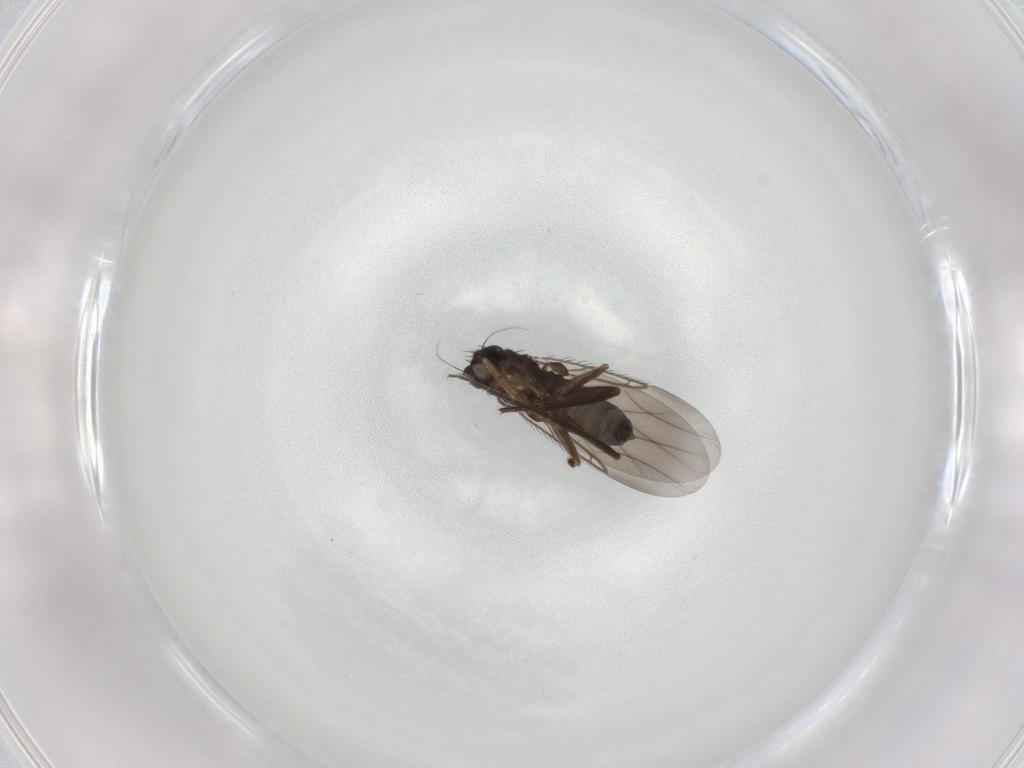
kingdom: Animalia
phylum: Arthropoda
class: Insecta
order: Diptera
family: Phoridae
